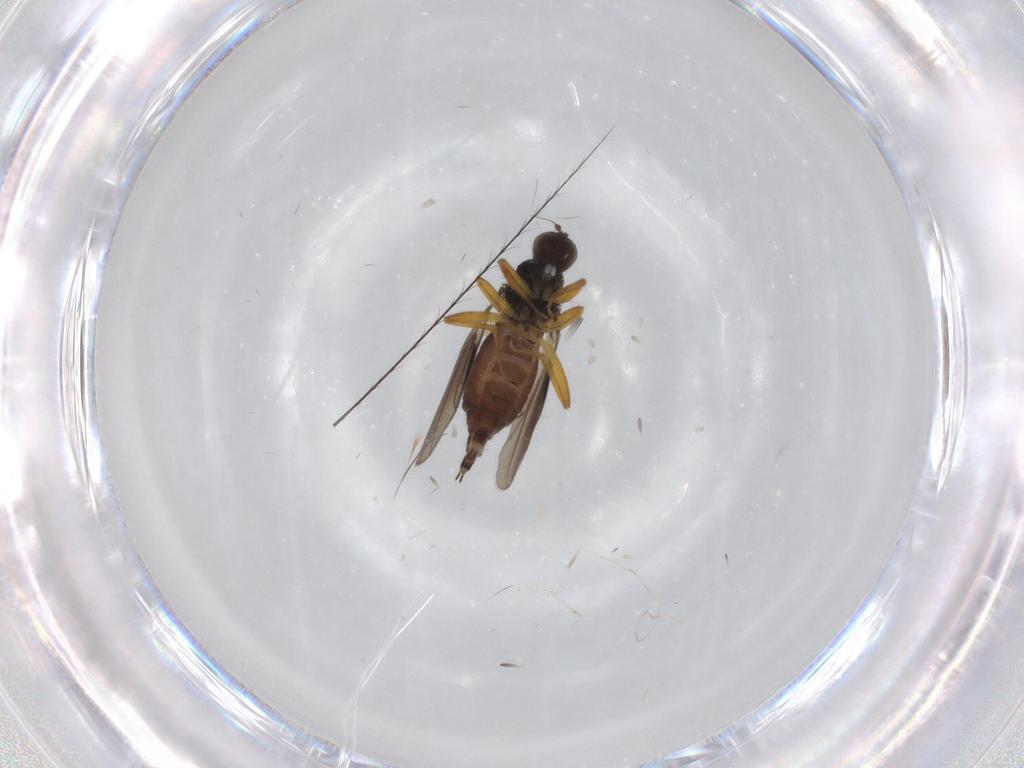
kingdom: Animalia
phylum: Arthropoda
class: Insecta
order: Diptera
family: Hybotidae
